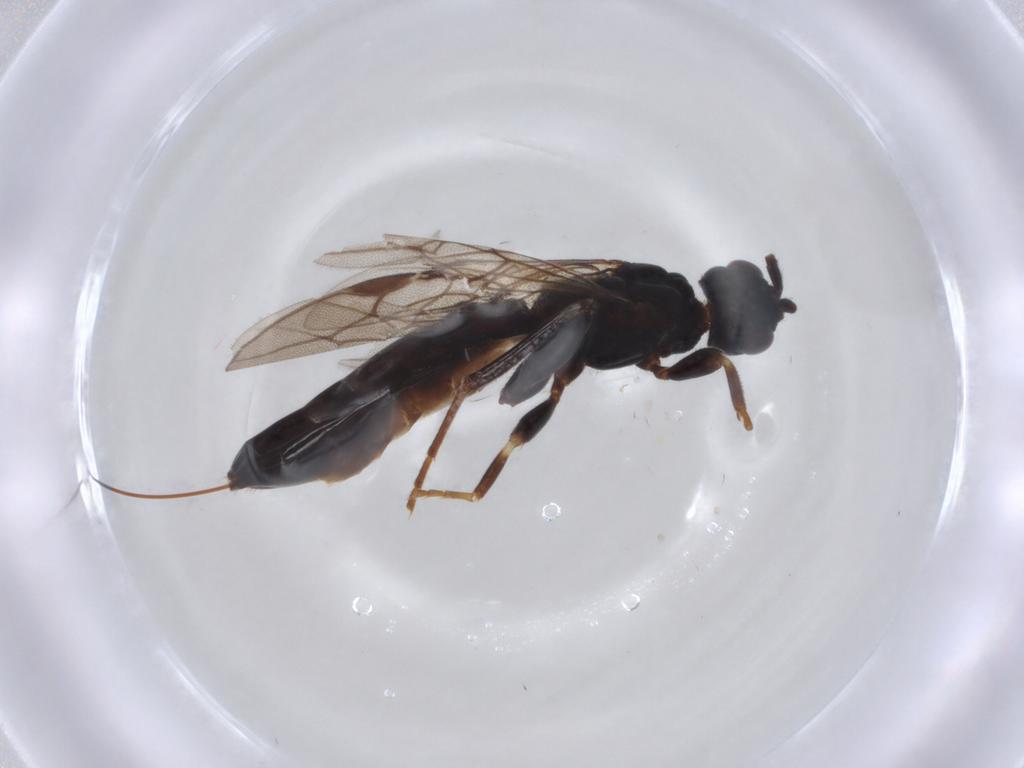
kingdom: Animalia
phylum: Arthropoda
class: Insecta
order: Hymenoptera
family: Braconidae
